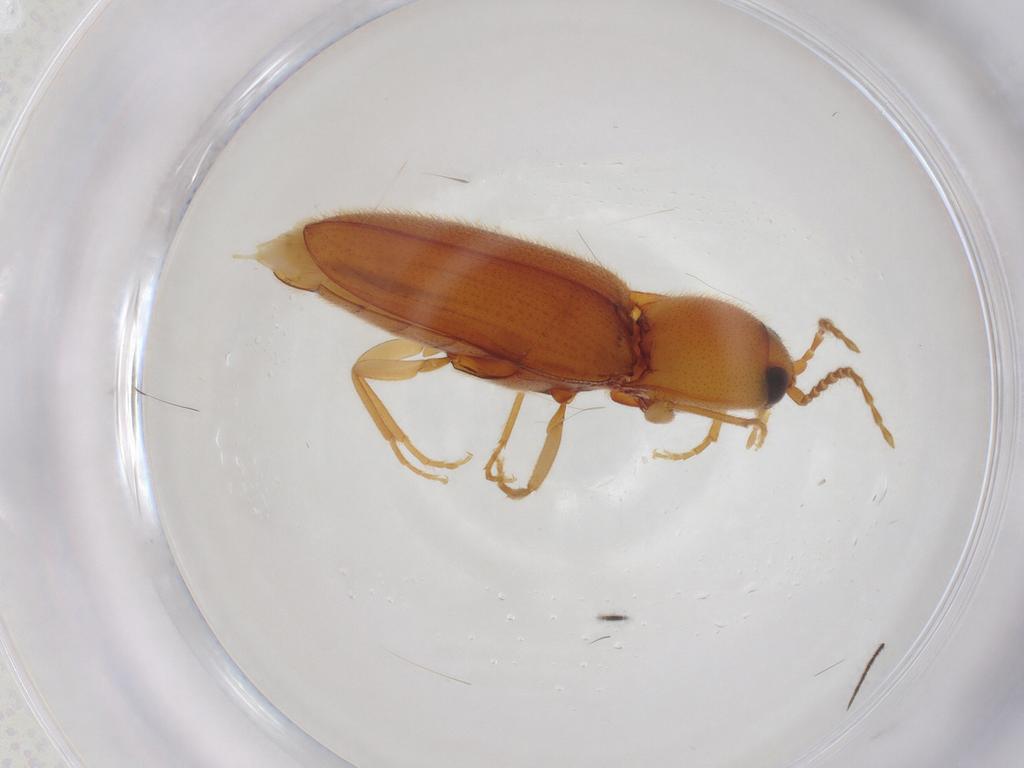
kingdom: Animalia
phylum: Arthropoda
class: Insecta
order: Coleoptera
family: Elateridae
